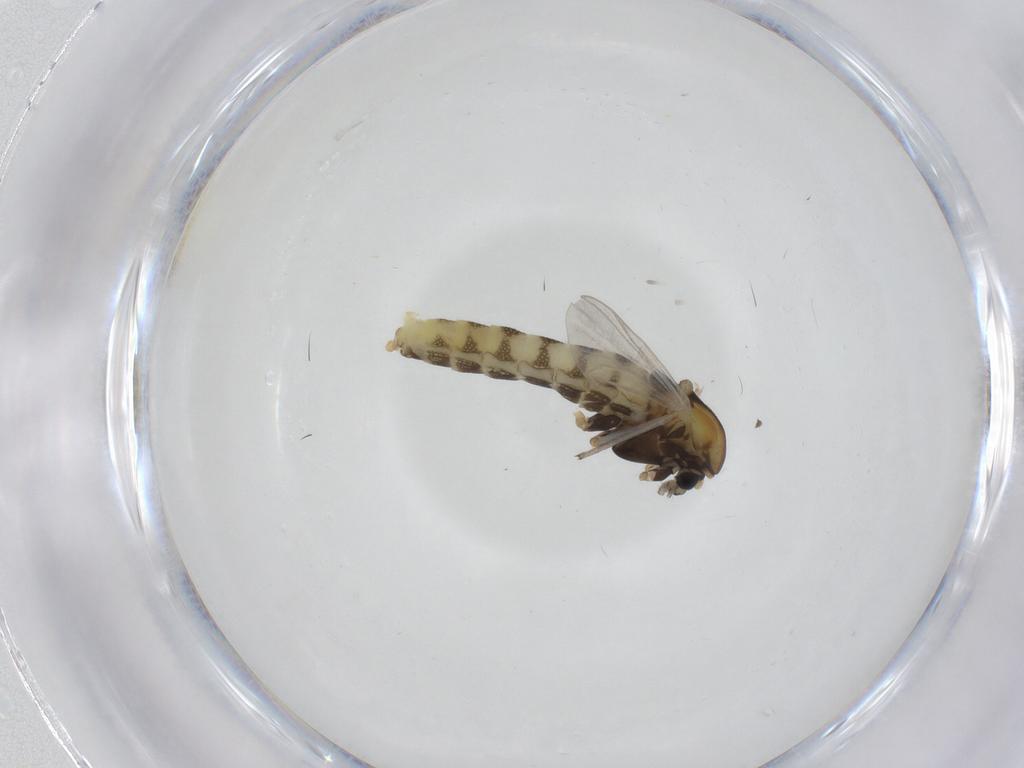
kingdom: Animalia
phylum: Arthropoda
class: Insecta
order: Diptera
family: Chironomidae
